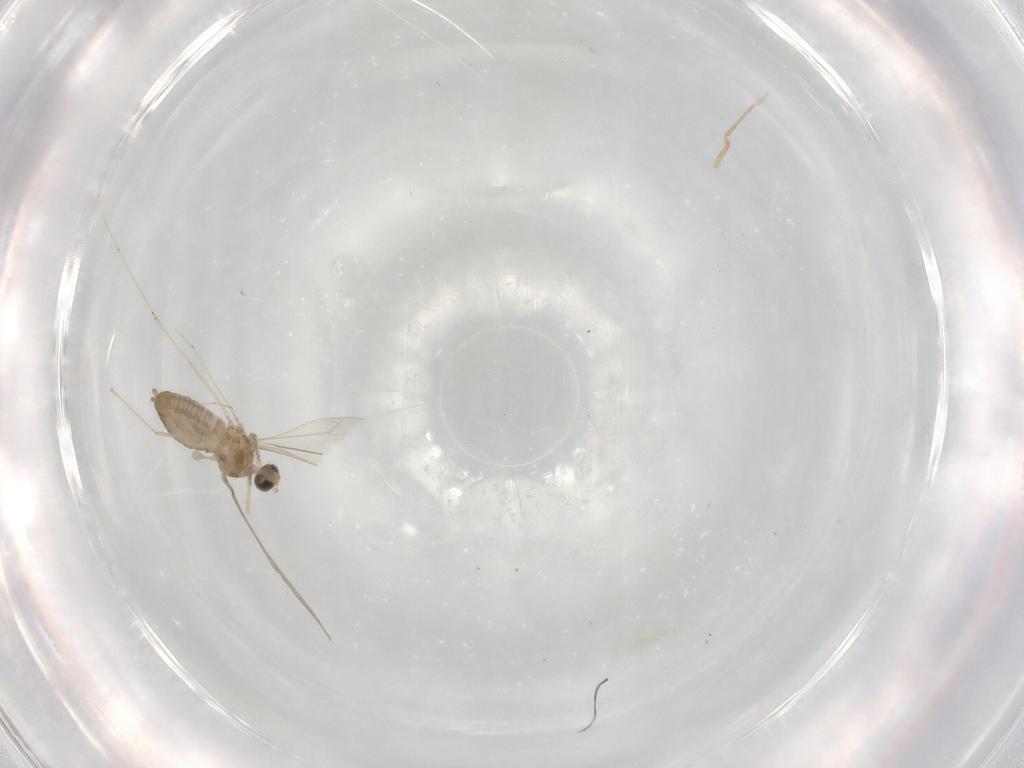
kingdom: Animalia
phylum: Arthropoda
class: Insecta
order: Diptera
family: Cecidomyiidae
